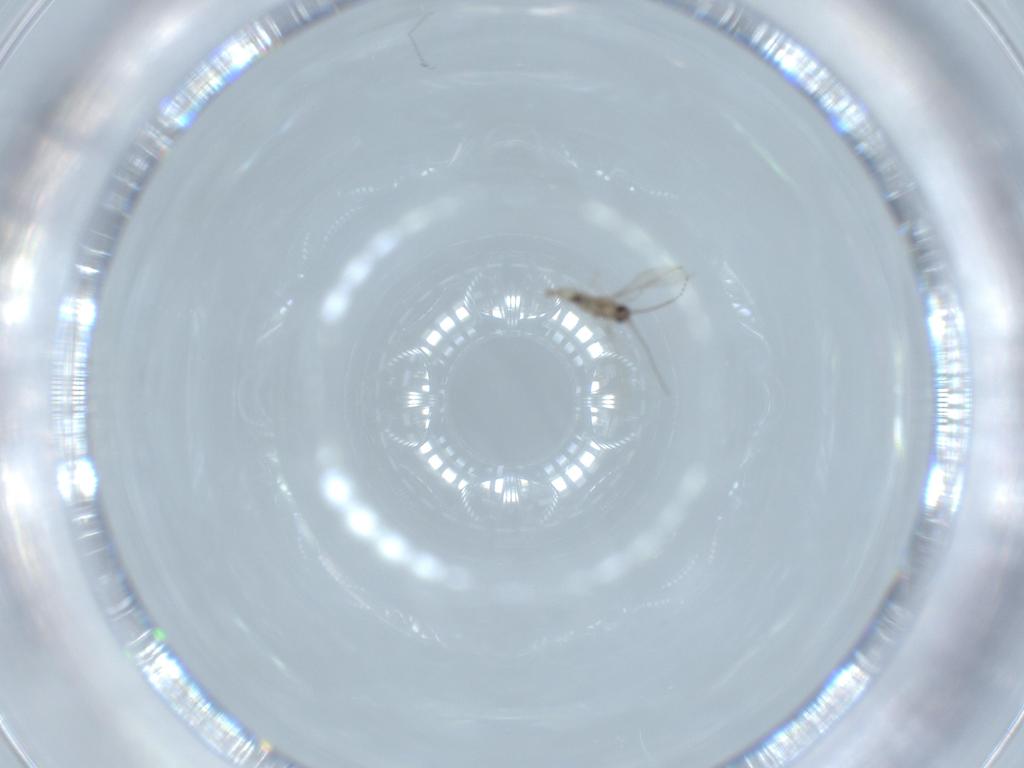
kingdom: Animalia
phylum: Arthropoda
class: Insecta
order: Diptera
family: Cecidomyiidae
